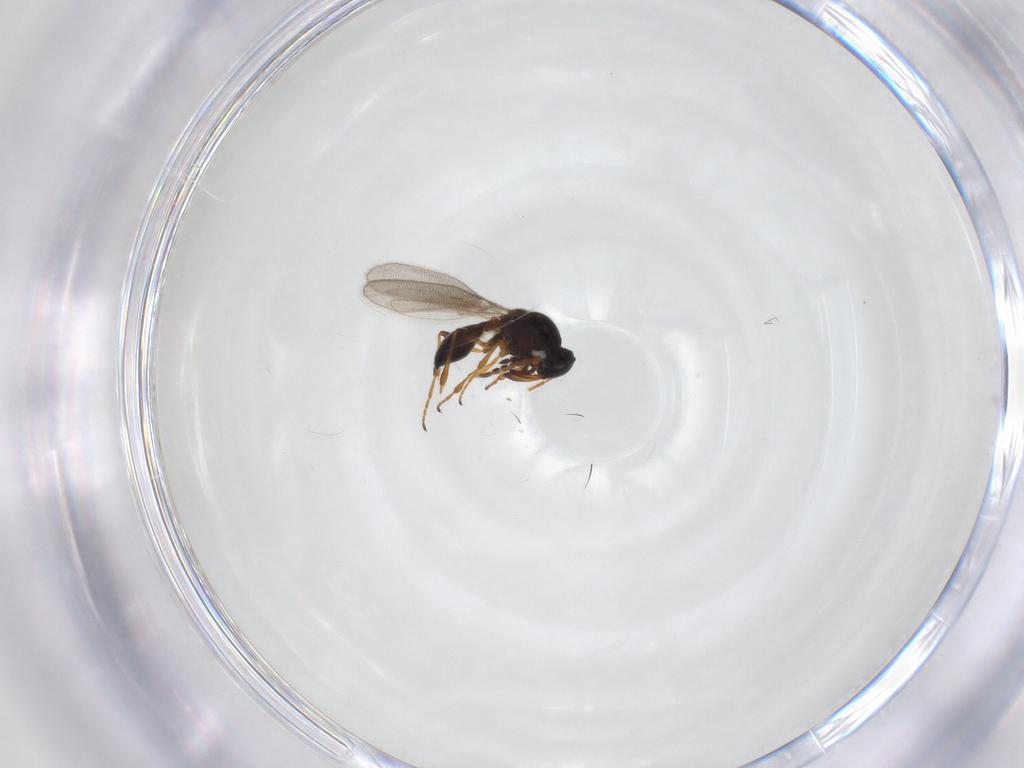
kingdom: Animalia
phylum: Arthropoda
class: Insecta
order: Hymenoptera
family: Platygastridae
